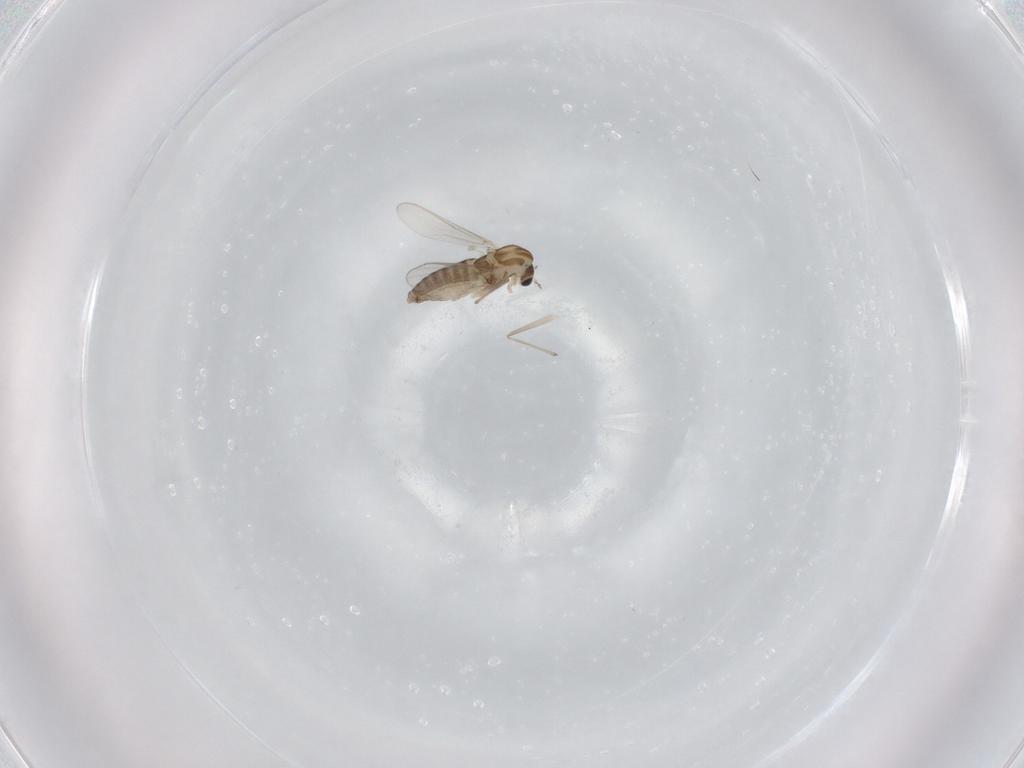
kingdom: Animalia
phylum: Arthropoda
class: Insecta
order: Diptera
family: Chironomidae
